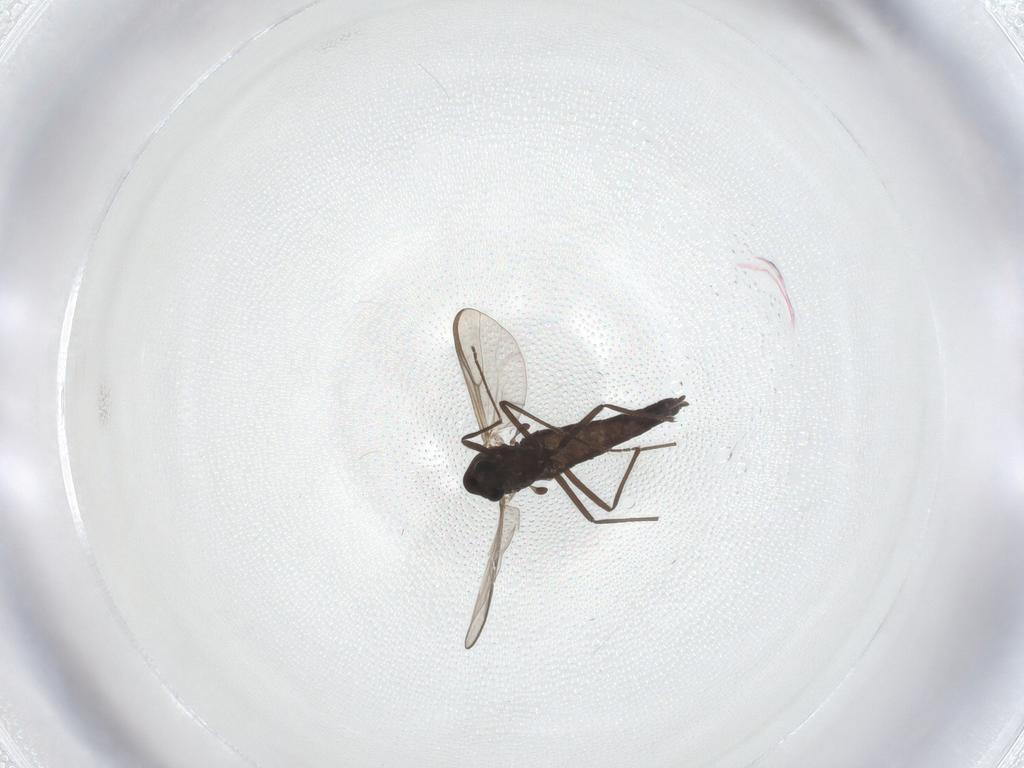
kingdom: Animalia
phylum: Arthropoda
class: Insecta
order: Diptera
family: Chironomidae
